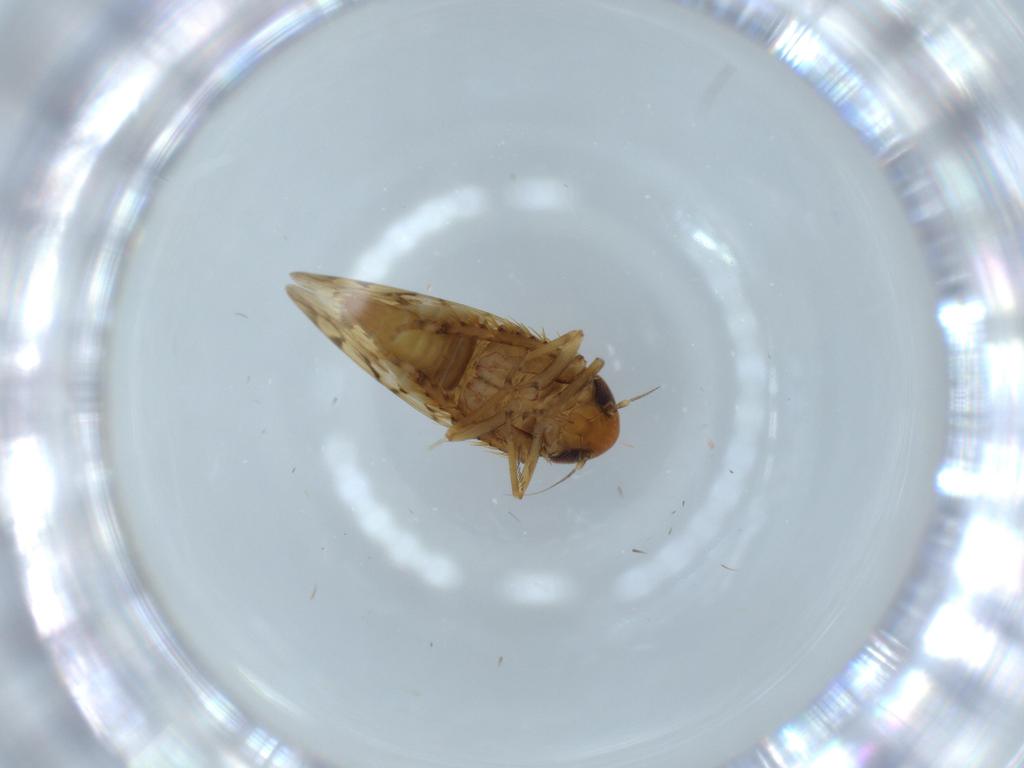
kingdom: Animalia
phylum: Arthropoda
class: Insecta
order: Hemiptera
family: Cicadellidae
